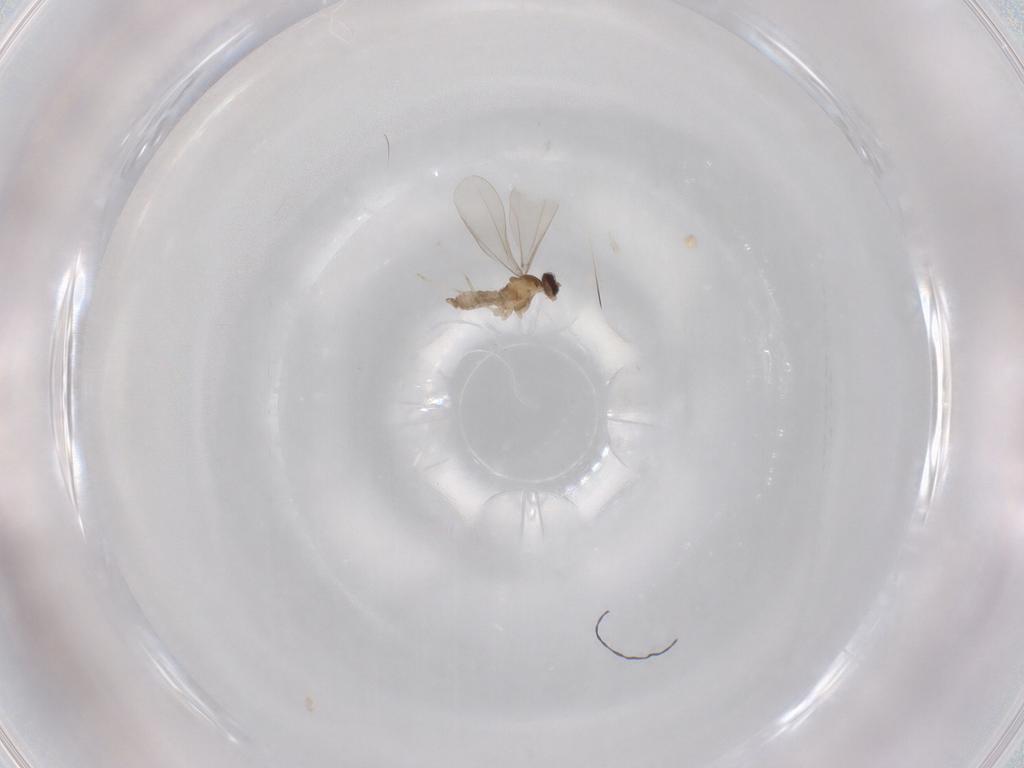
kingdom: Animalia
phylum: Arthropoda
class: Insecta
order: Diptera
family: Cecidomyiidae
